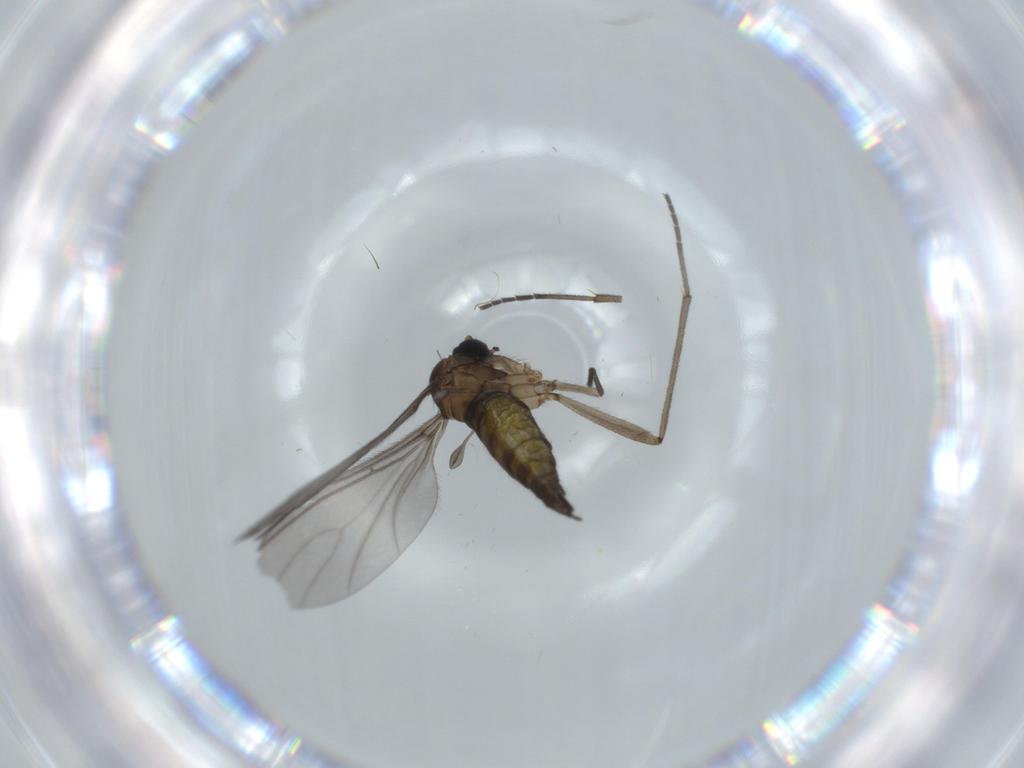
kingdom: Animalia
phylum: Arthropoda
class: Insecta
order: Diptera
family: Sciaridae
